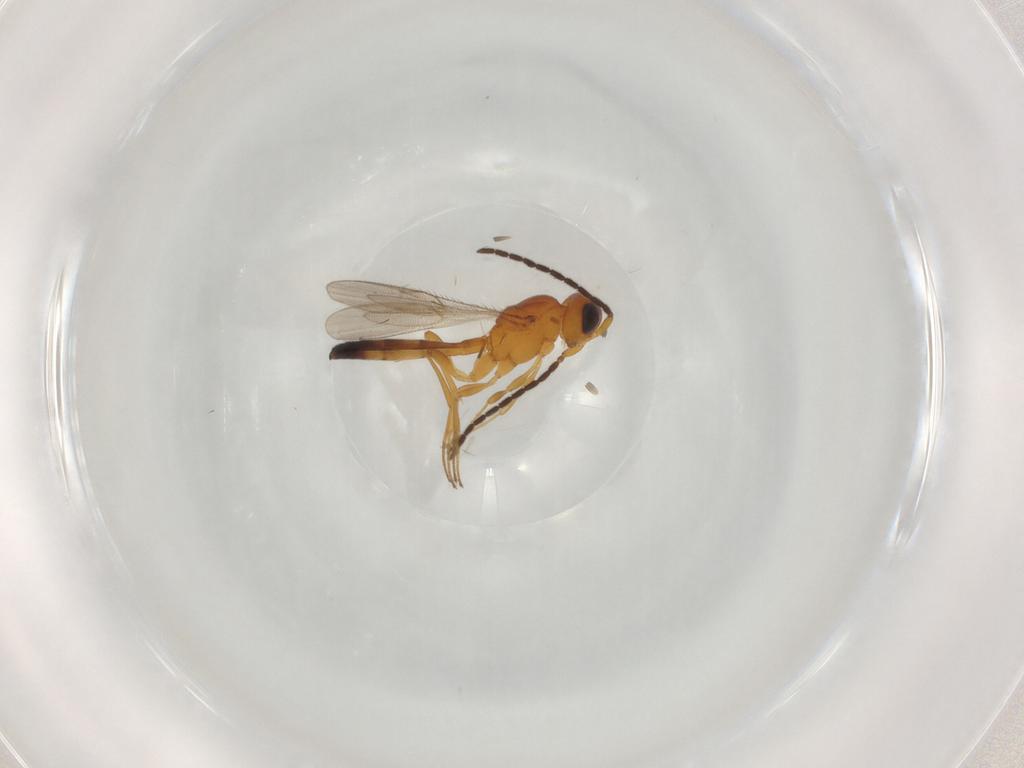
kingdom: Animalia
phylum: Arthropoda
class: Insecta
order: Hymenoptera
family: Scelionidae
